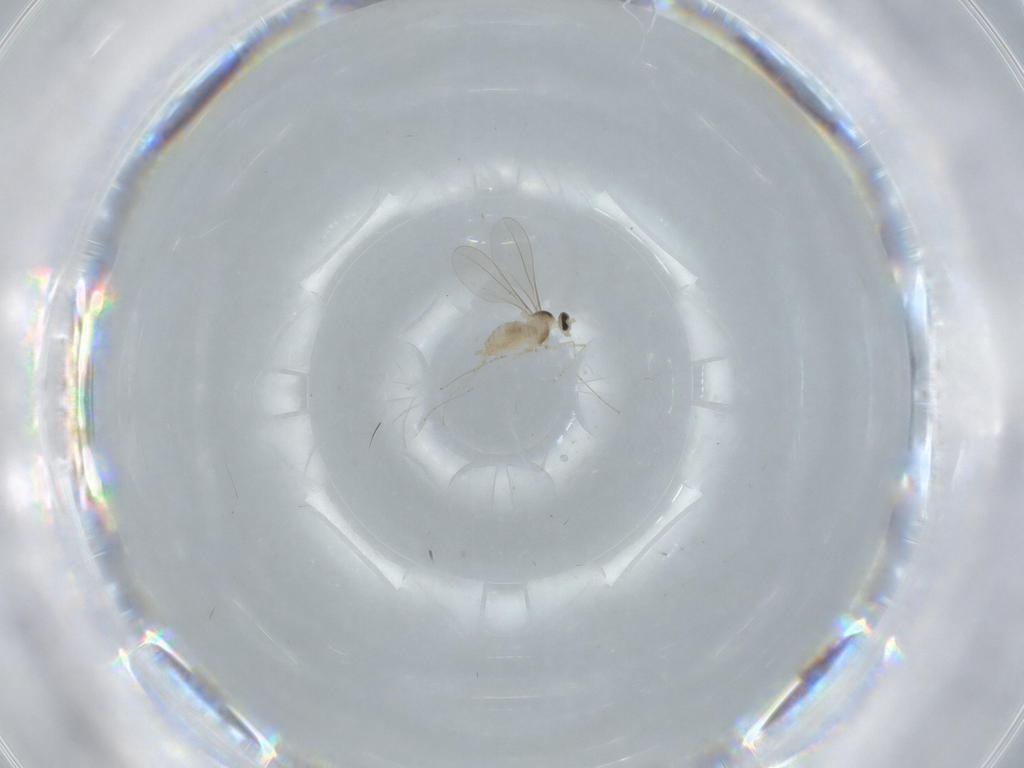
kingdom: Animalia
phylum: Arthropoda
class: Insecta
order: Diptera
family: Cecidomyiidae
